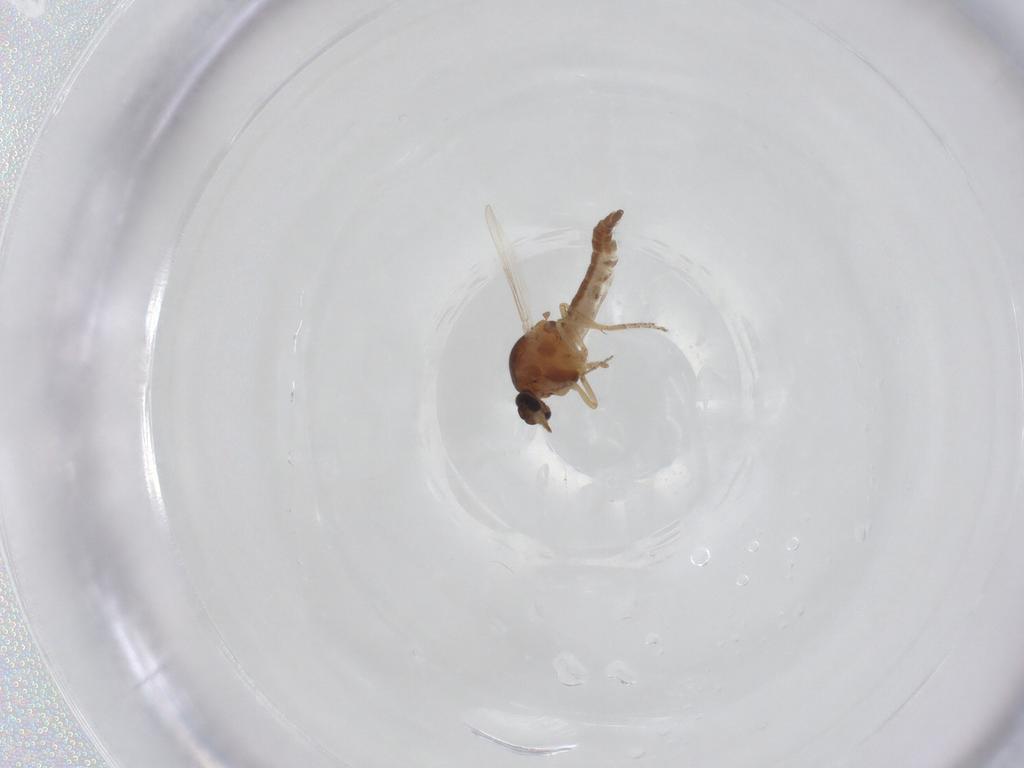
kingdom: Animalia
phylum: Arthropoda
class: Insecta
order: Diptera
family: Ceratopogonidae
